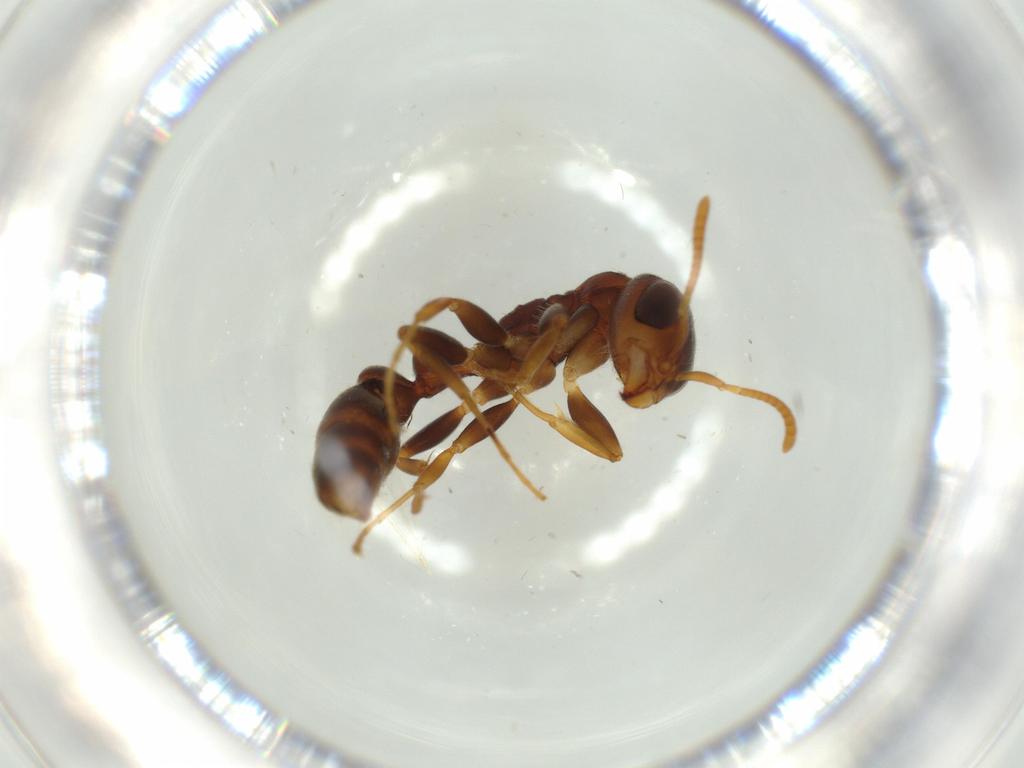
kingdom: Animalia
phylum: Arthropoda
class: Insecta
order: Hymenoptera
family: Formicidae
